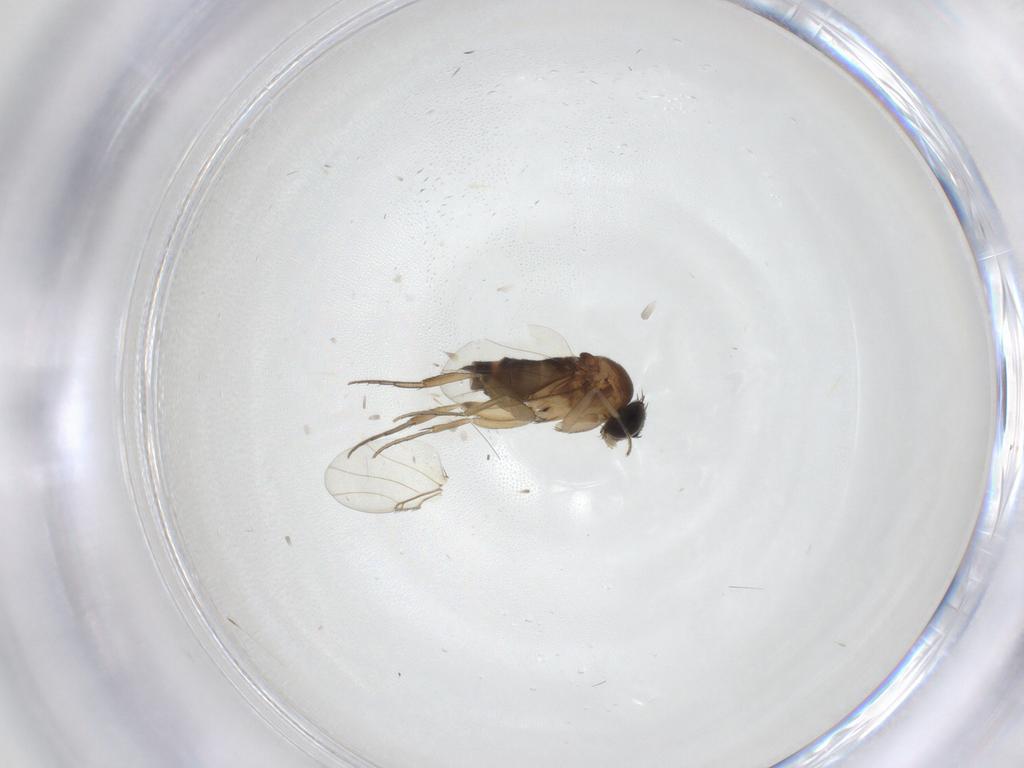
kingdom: Animalia
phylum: Arthropoda
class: Insecta
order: Diptera
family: Phoridae
